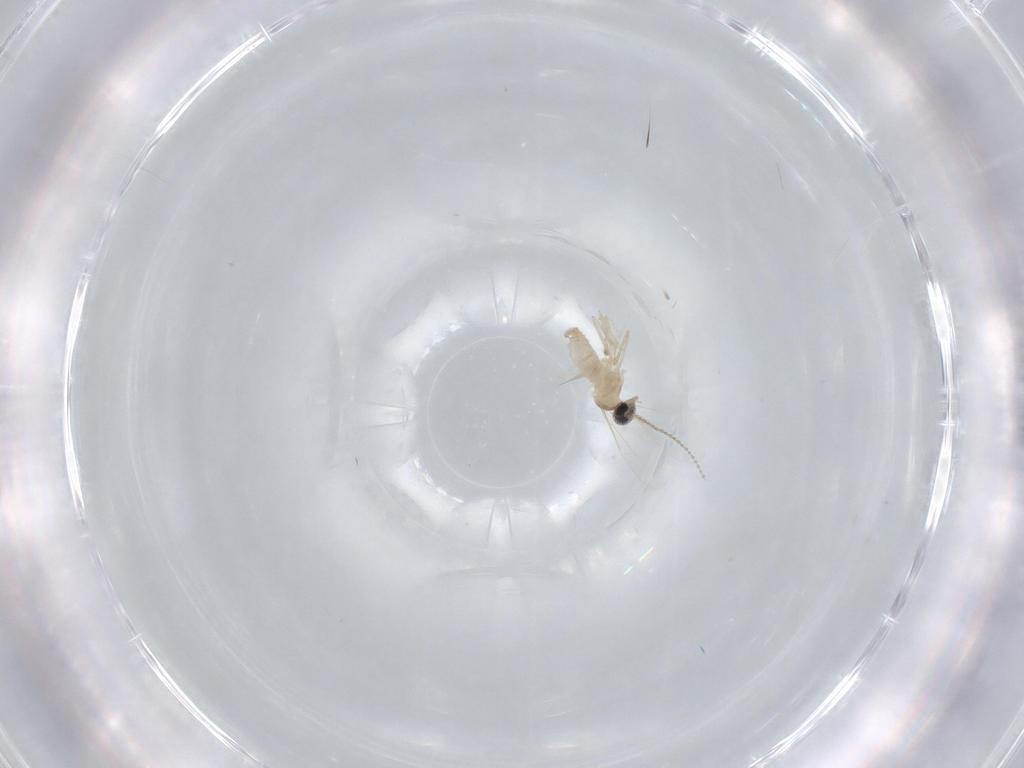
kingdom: Animalia
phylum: Arthropoda
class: Insecta
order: Diptera
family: Cecidomyiidae
